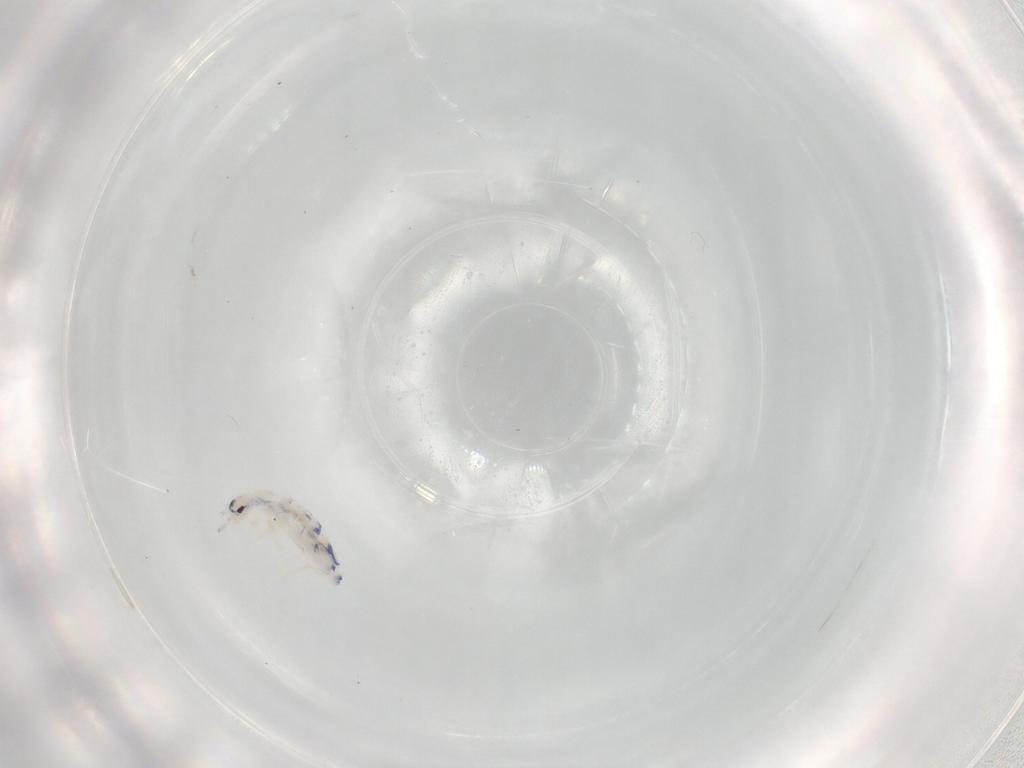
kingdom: Animalia
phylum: Arthropoda
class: Collembola
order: Entomobryomorpha
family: Entomobryidae
